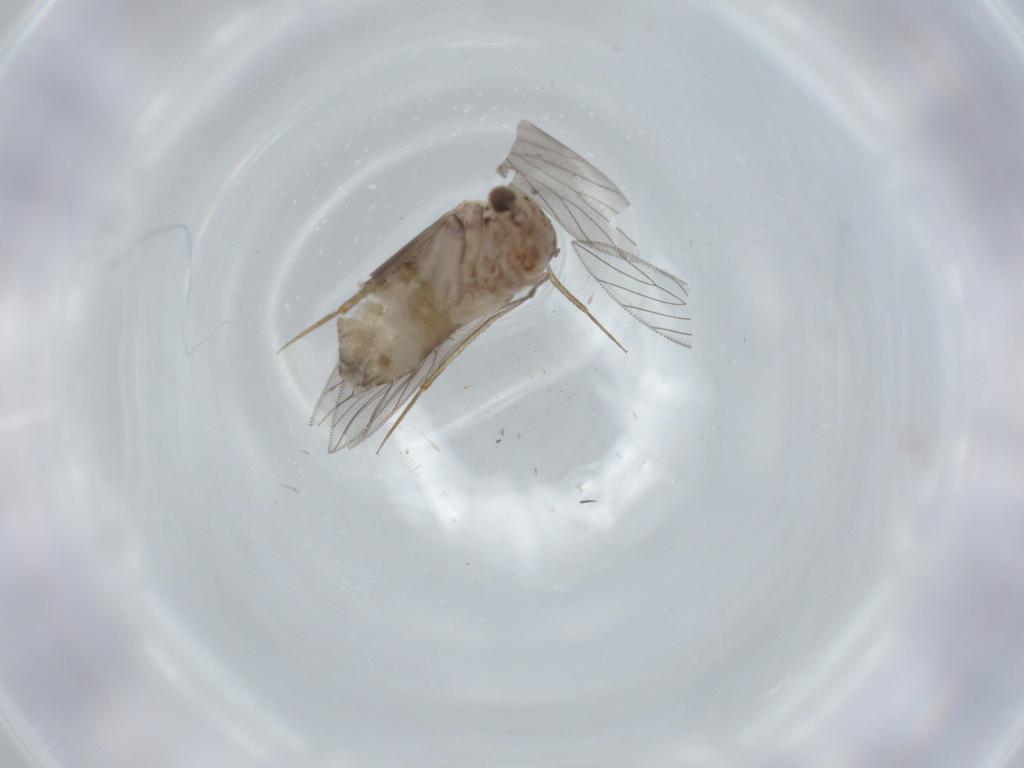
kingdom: Animalia
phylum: Arthropoda
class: Insecta
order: Psocodea
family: Lepidopsocidae
